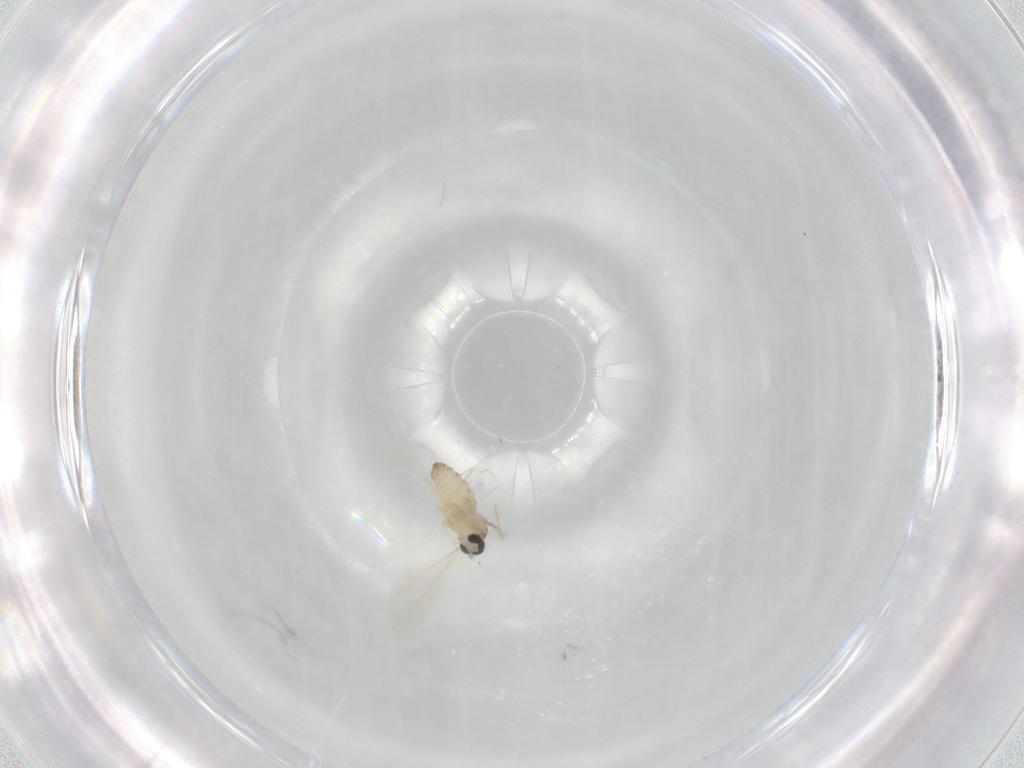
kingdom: Animalia
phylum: Arthropoda
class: Insecta
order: Diptera
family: Cecidomyiidae
